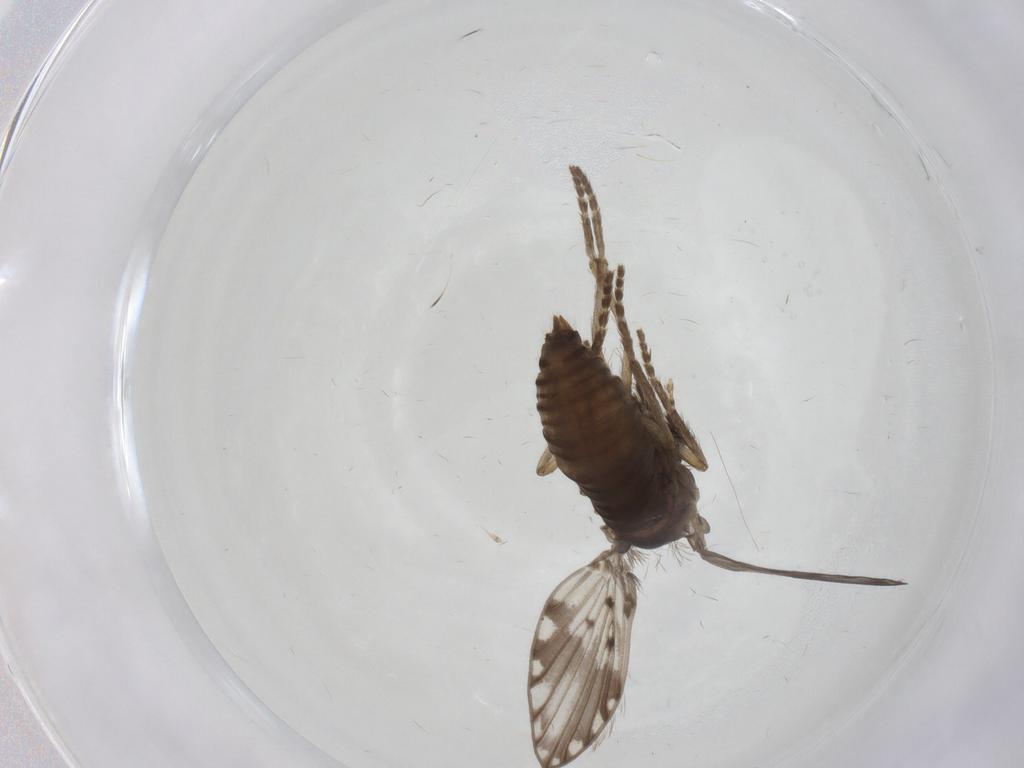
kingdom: Animalia
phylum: Arthropoda
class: Insecta
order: Diptera
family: Psychodidae
